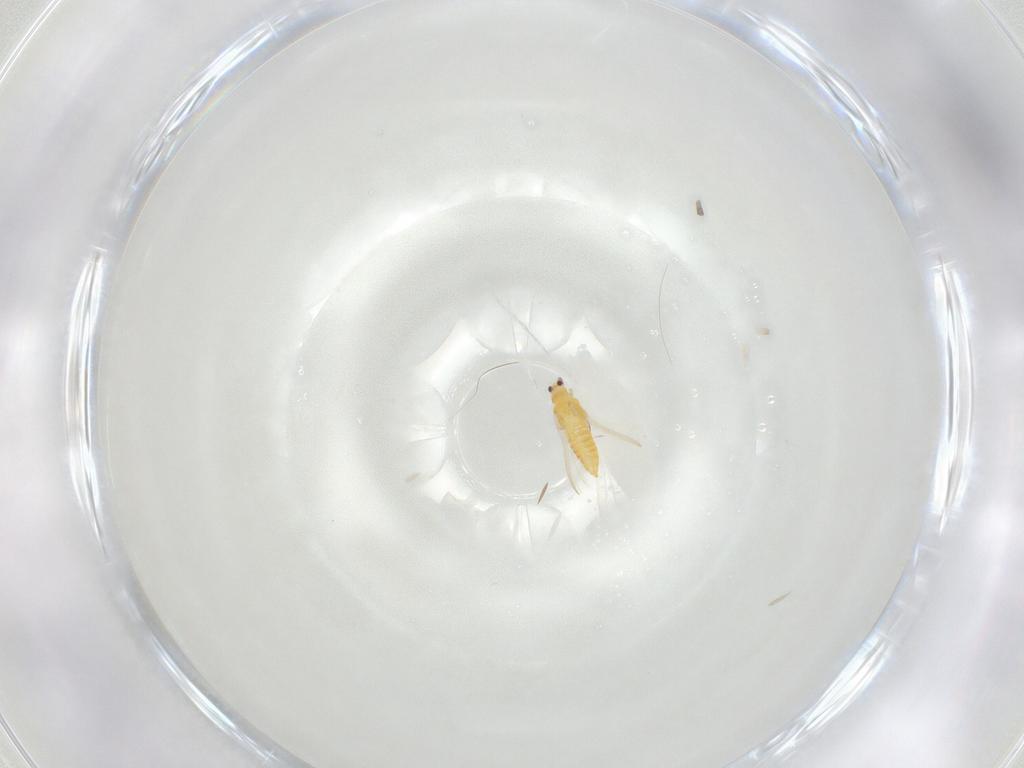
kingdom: Animalia
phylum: Arthropoda
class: Insecta
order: Thysanoptera
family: Thripidae
